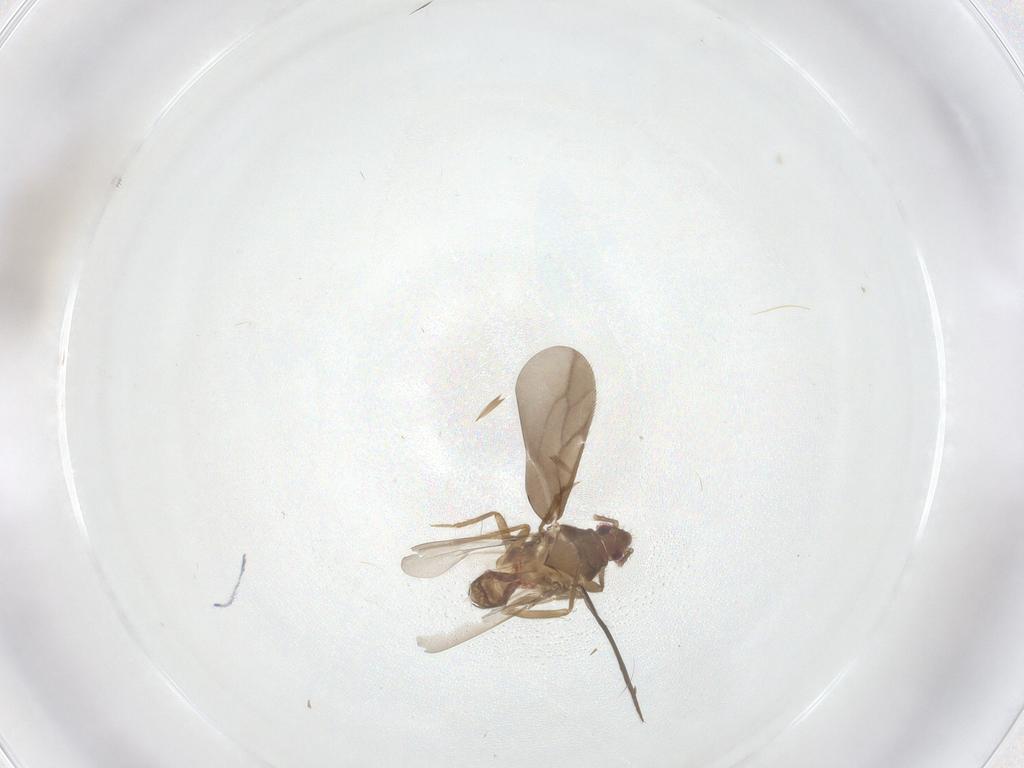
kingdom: Animalia
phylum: Arthropoda
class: Insecta
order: Hemiptera
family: Ceratocombidae
